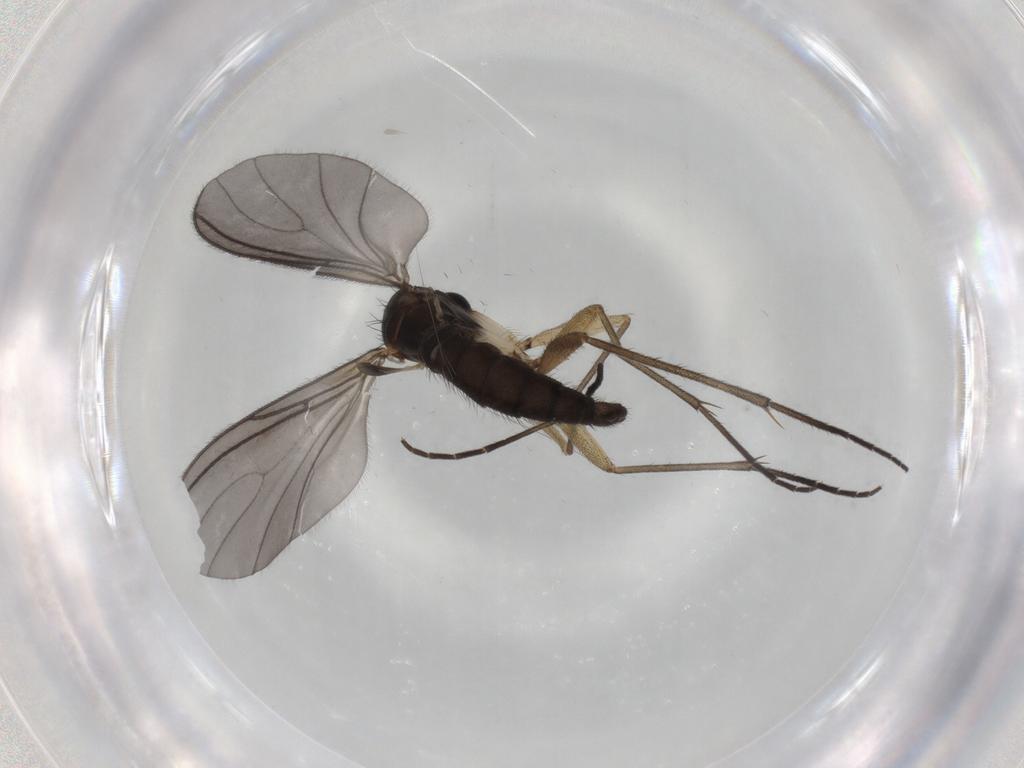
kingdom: Animalia
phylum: Arthropoda
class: Insecta
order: Diptera
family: Sciaridae
